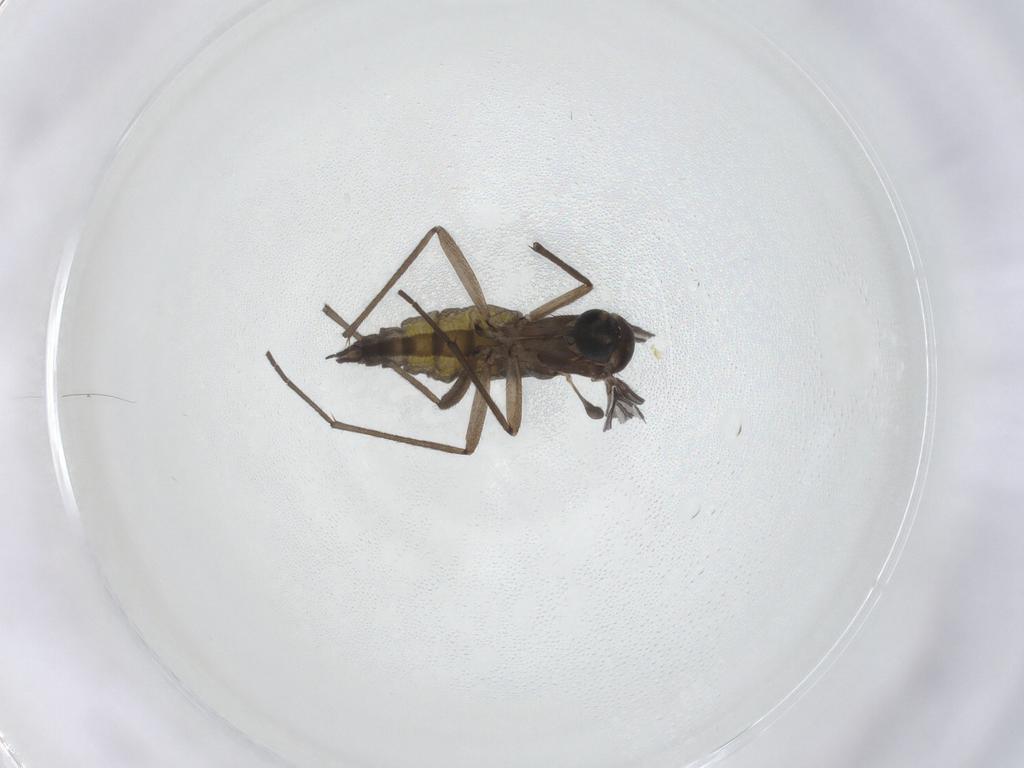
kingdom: Animalia
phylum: Arthropoda
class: Insecta
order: Diptera
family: Sciaridae
